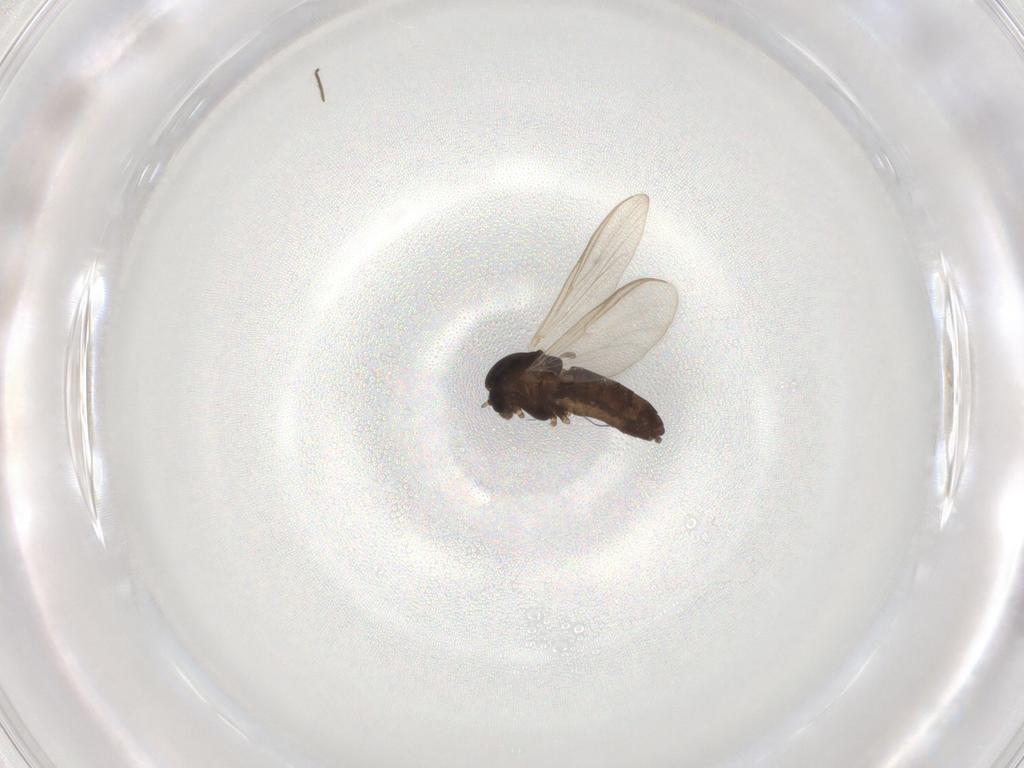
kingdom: Animalia
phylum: Arthropoda
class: Insecta
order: Diptera
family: Chironomidae
